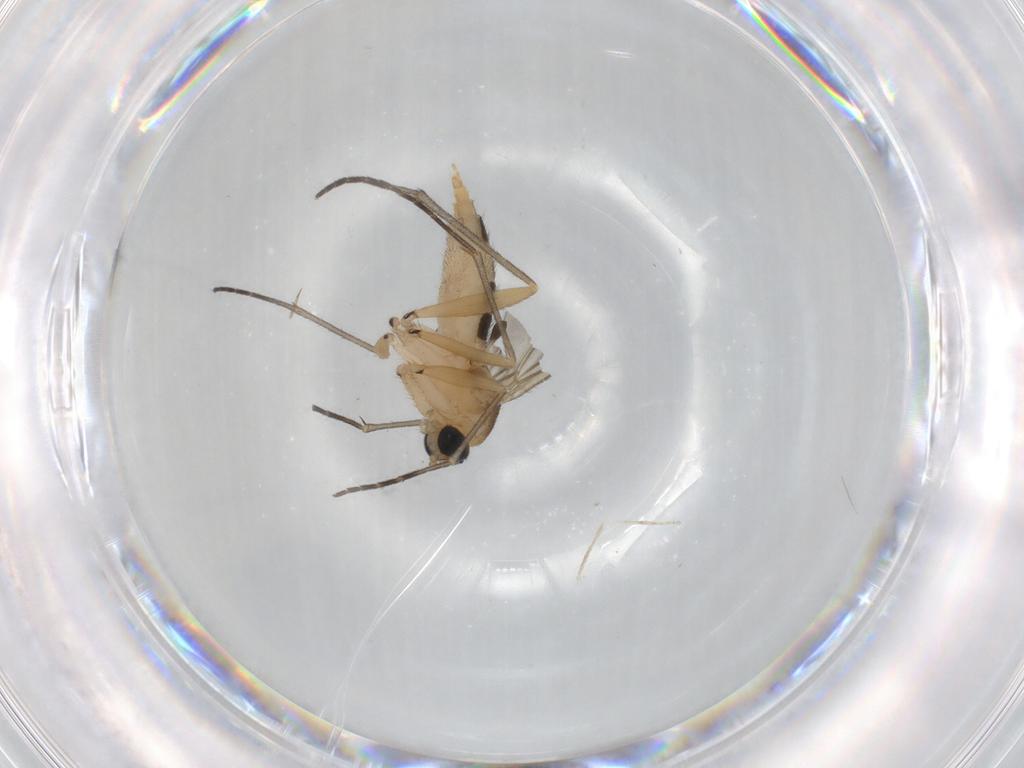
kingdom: Animalia
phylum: Arthropoda
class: Insecta
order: Diptera
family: Sciaridae
